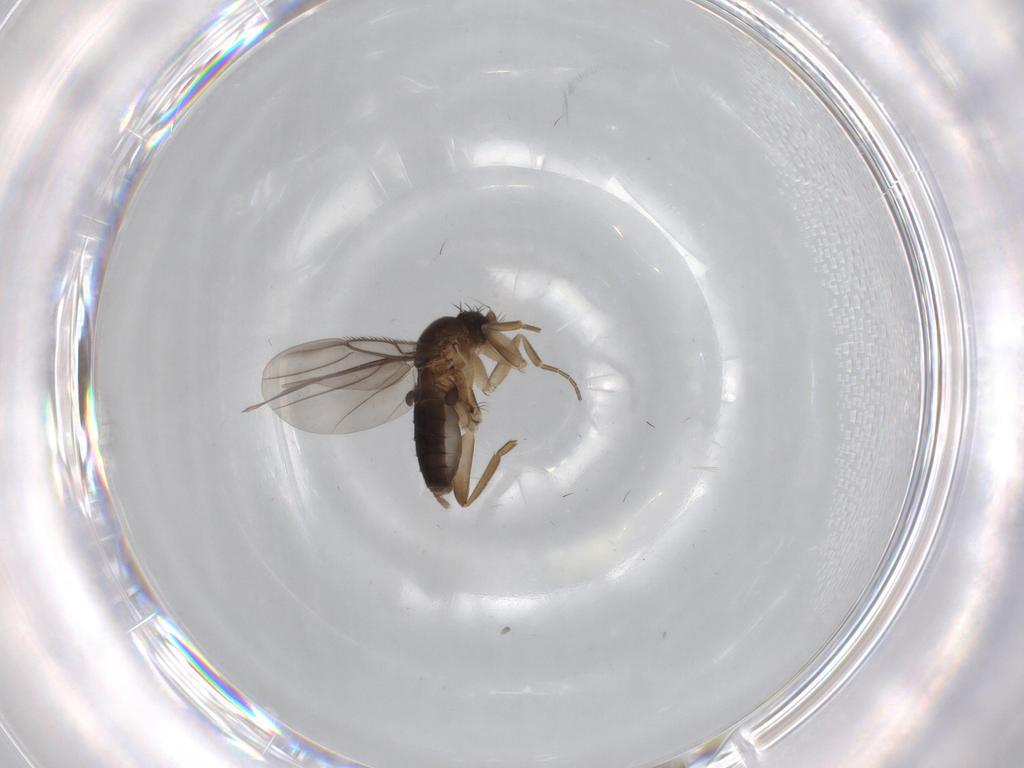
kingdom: Animalia
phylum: Arthropoda
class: Insecta
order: Diptera
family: Phoridae
